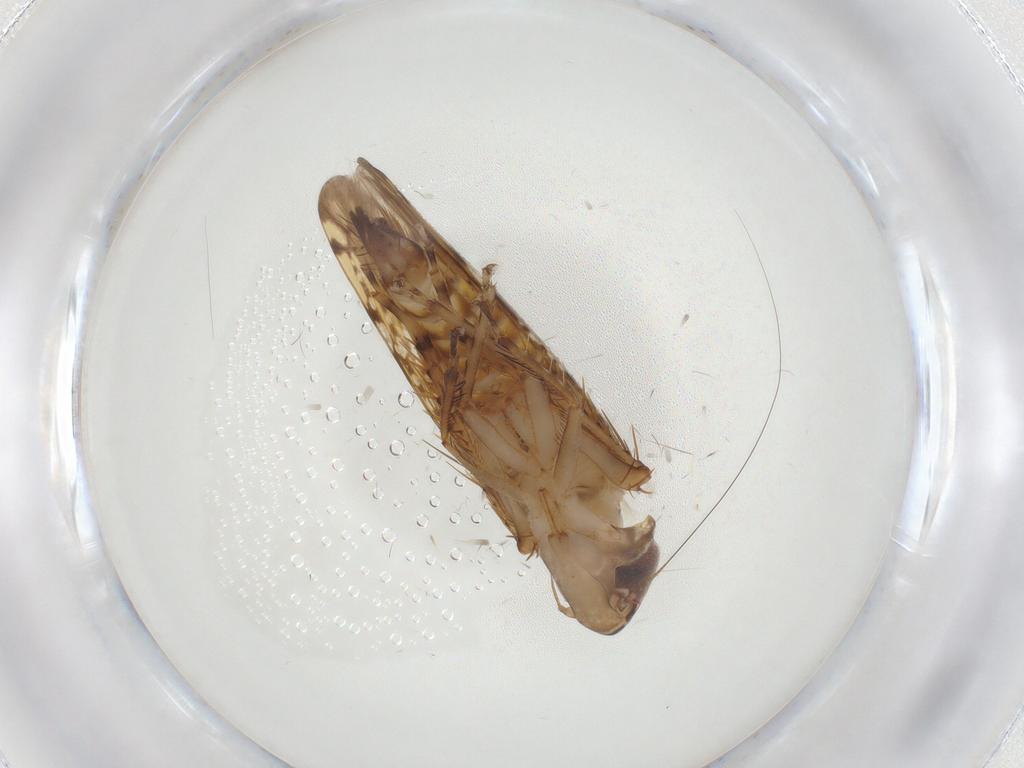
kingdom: Animalia
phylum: Arthropoda
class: Insecta
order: Hemiptera
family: Cicadellidae
